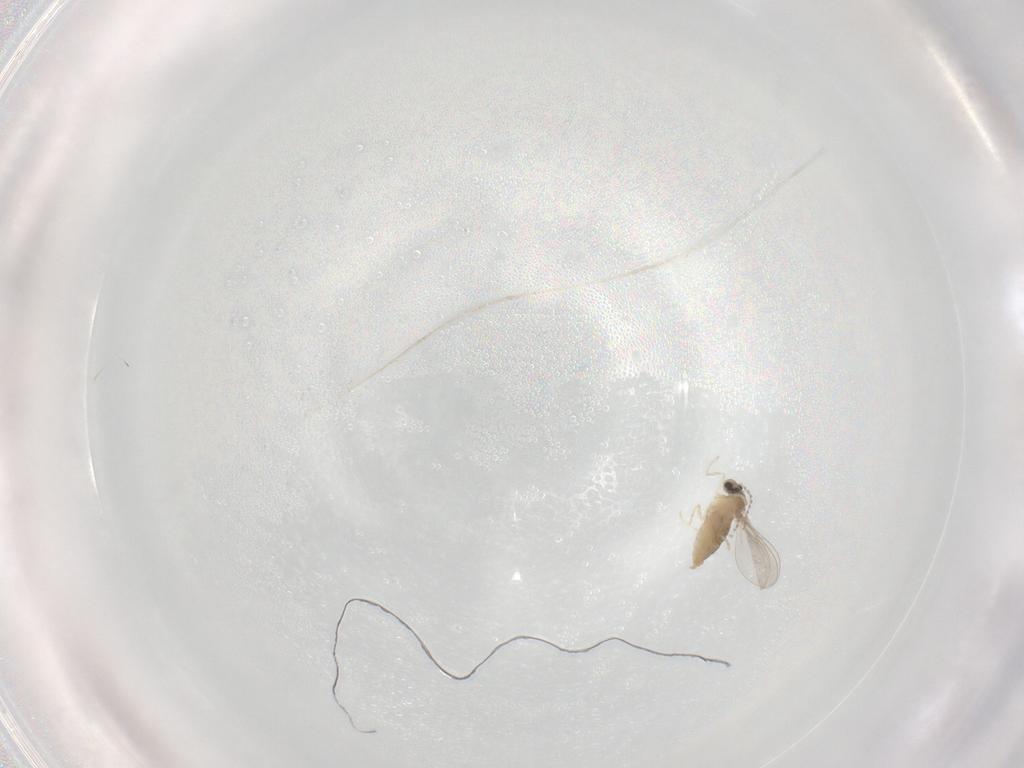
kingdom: Animalia
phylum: Arthropoda
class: Insecta
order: Diptera
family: Cecidomyiidae
